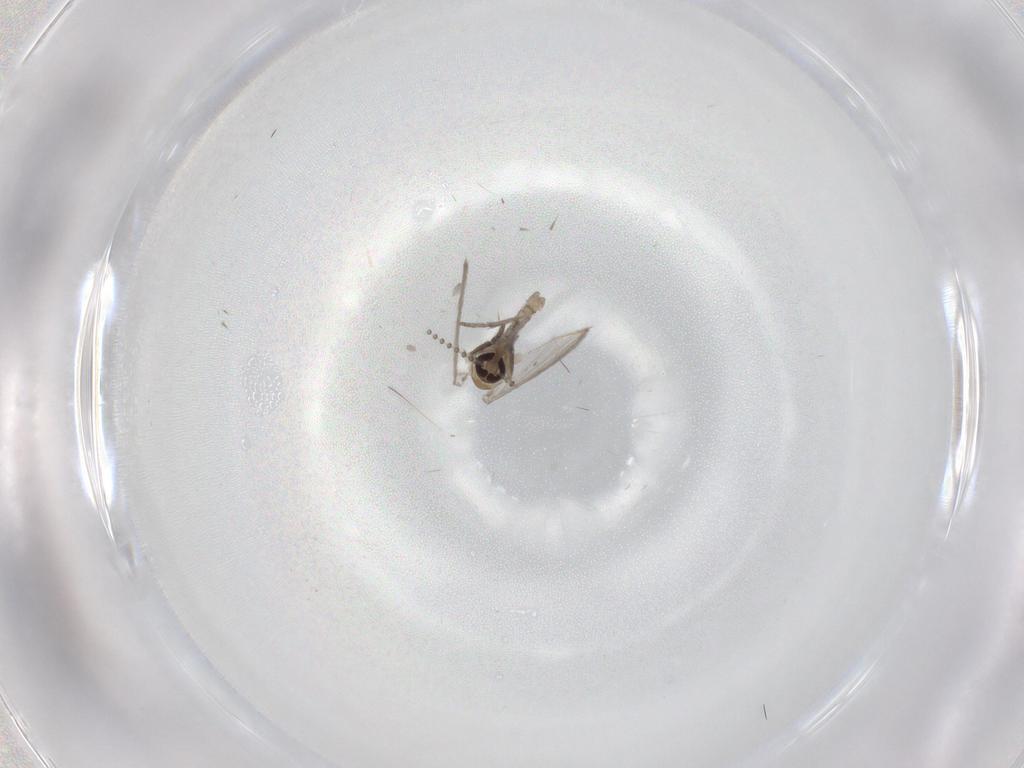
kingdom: Animalia
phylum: Arthropoda
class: Insecta
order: Diptera
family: Psychodidae
